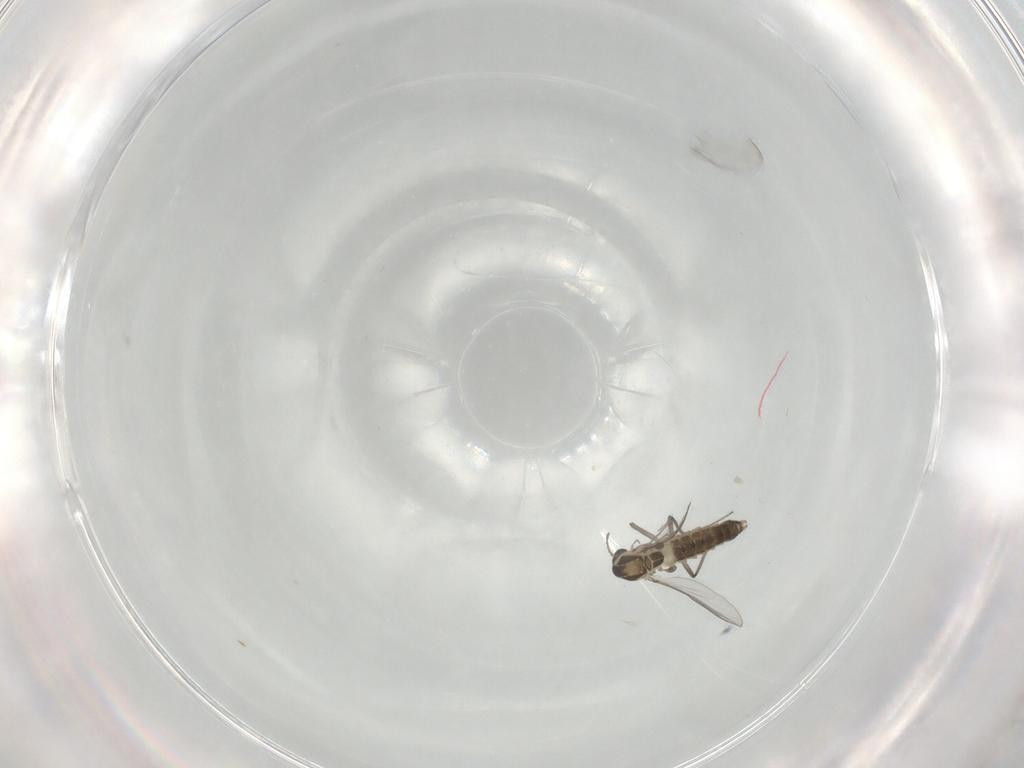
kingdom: Animalia
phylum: Arthropoda
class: Insecta
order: Diptera
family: Chironomidae
